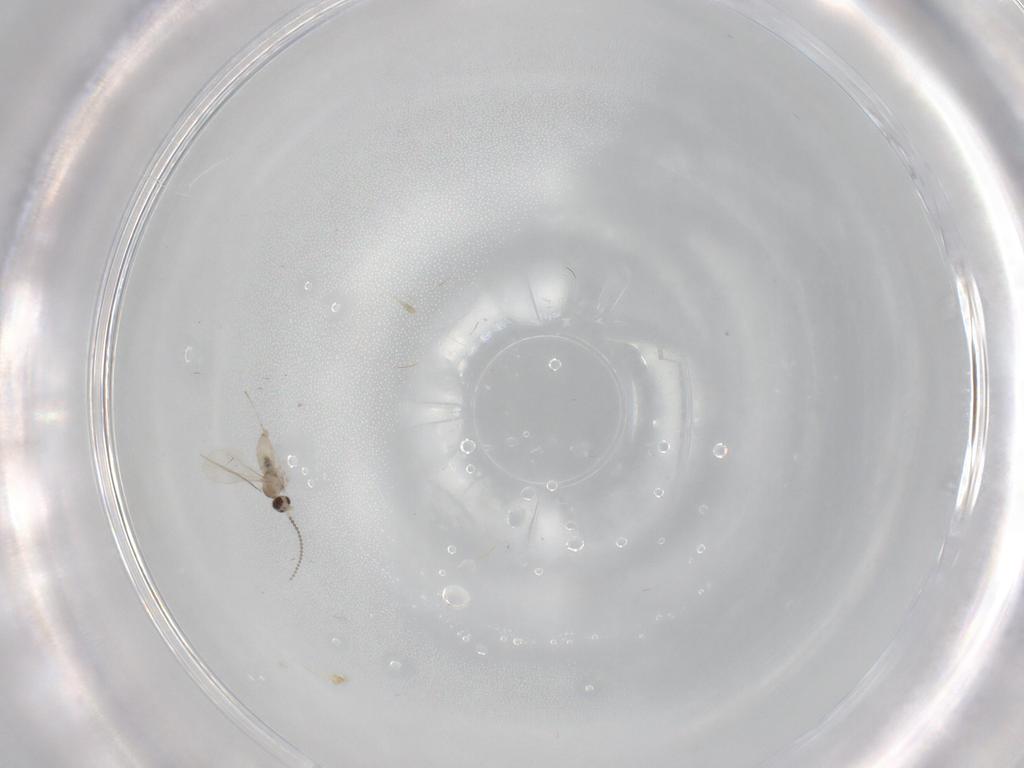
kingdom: Animalia
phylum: Arthropoda
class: Insecta
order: Diptera
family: Cecidomyiidae
